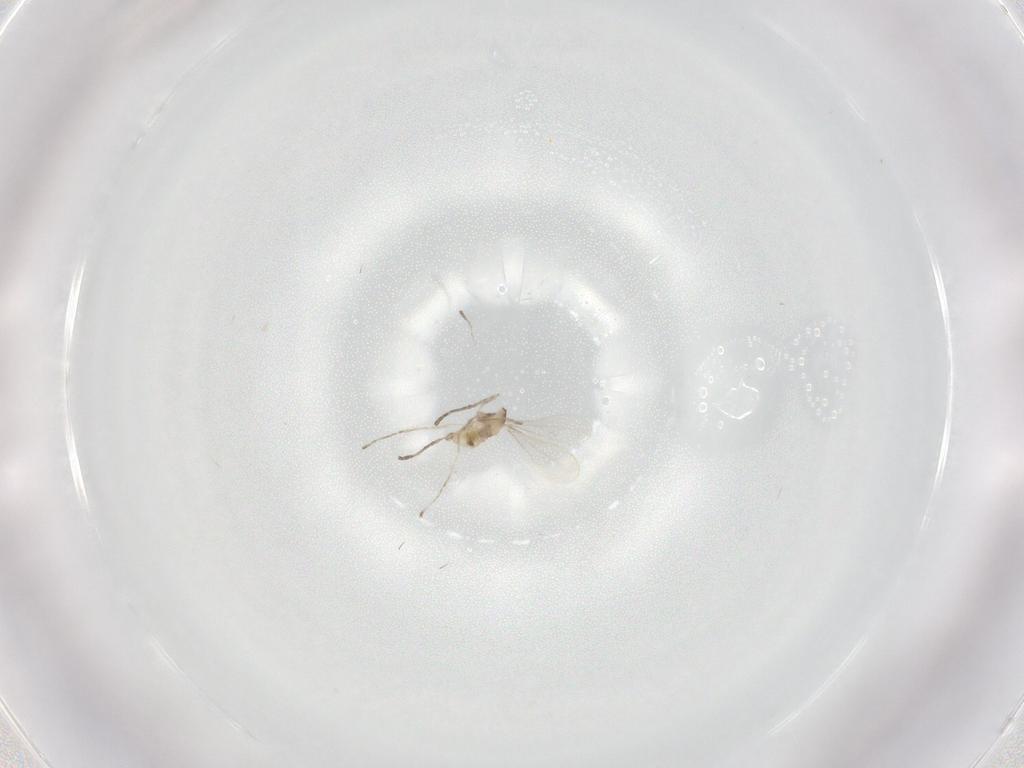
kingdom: Animalia
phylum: Arthropoda
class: Insecta
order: Diptera
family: Cecidomyiidae
